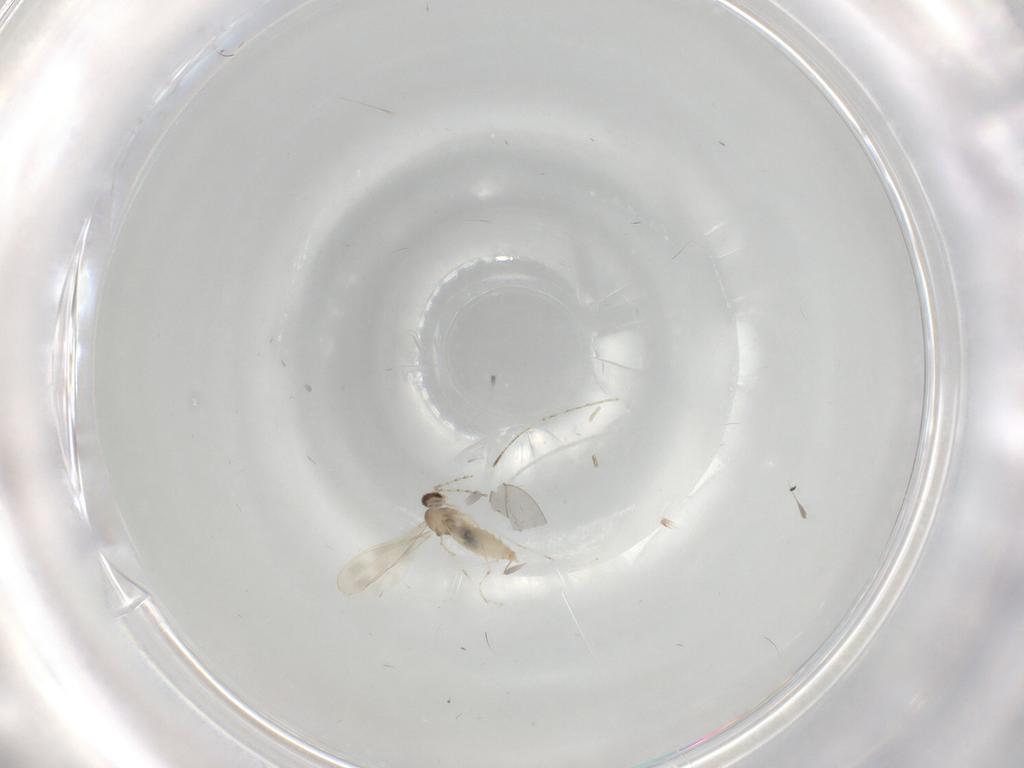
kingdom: Animalia
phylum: Arthropoda
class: Insecta
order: Diptera
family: Cecidomyiidae
